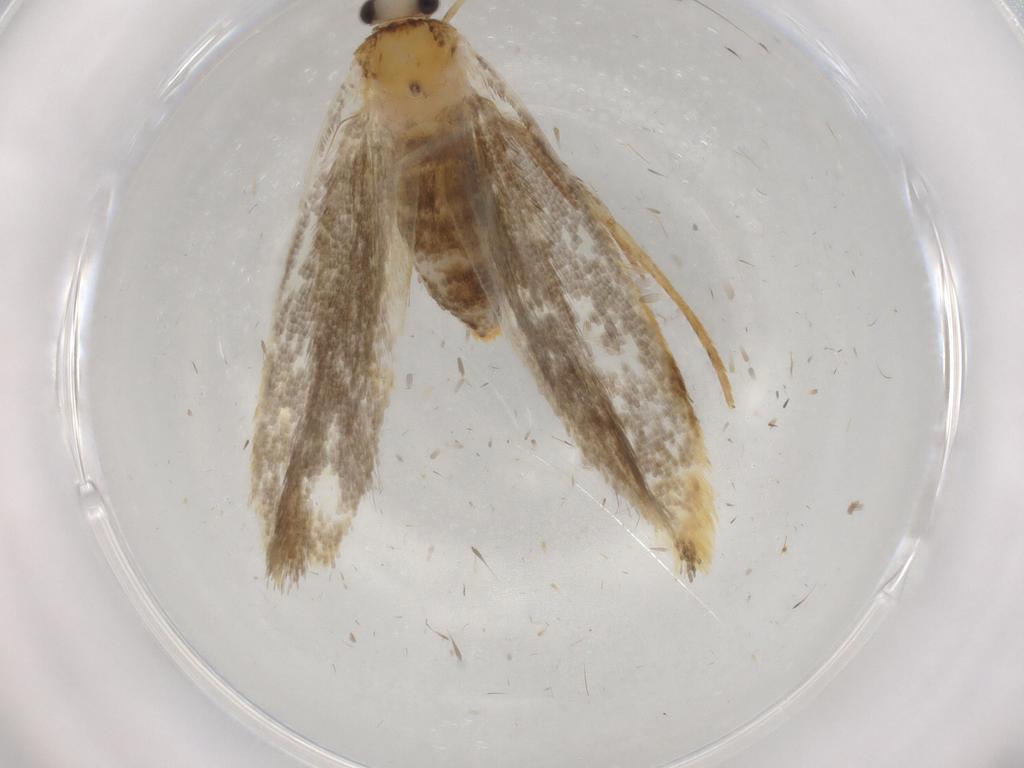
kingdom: Animalia
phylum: Arthropoda
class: Insecta
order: Lepidoptera
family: Tineidae
